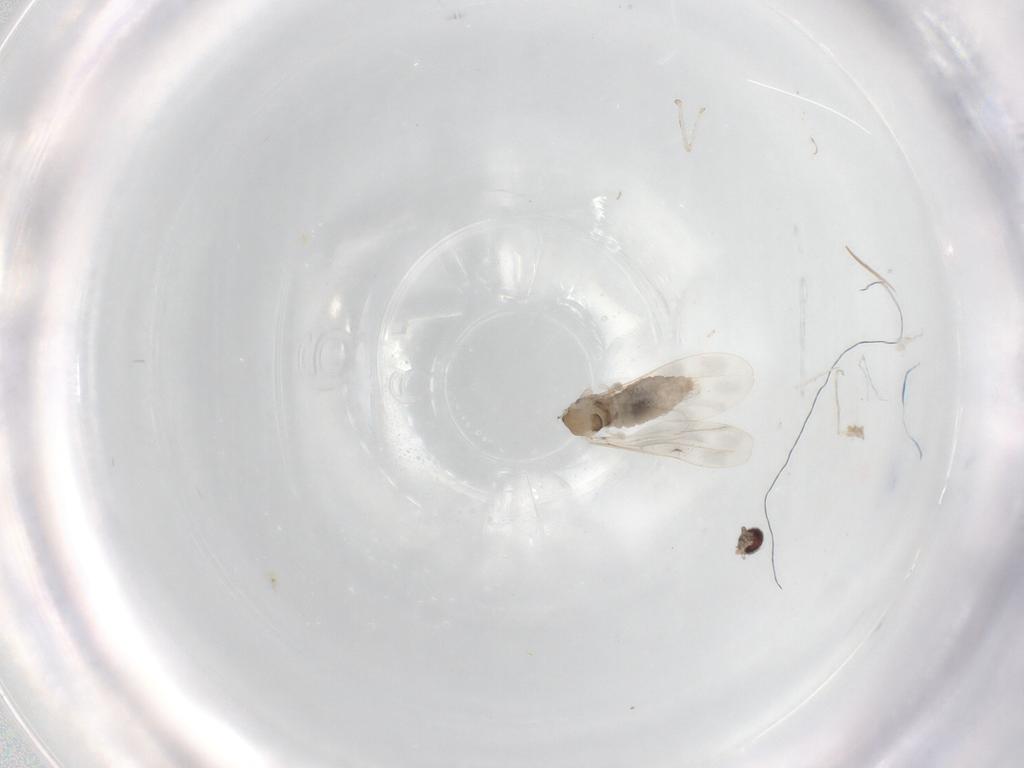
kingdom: Animalia
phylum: Arthropoda
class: Insecta
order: Diptera
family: Cecidomyiidae
